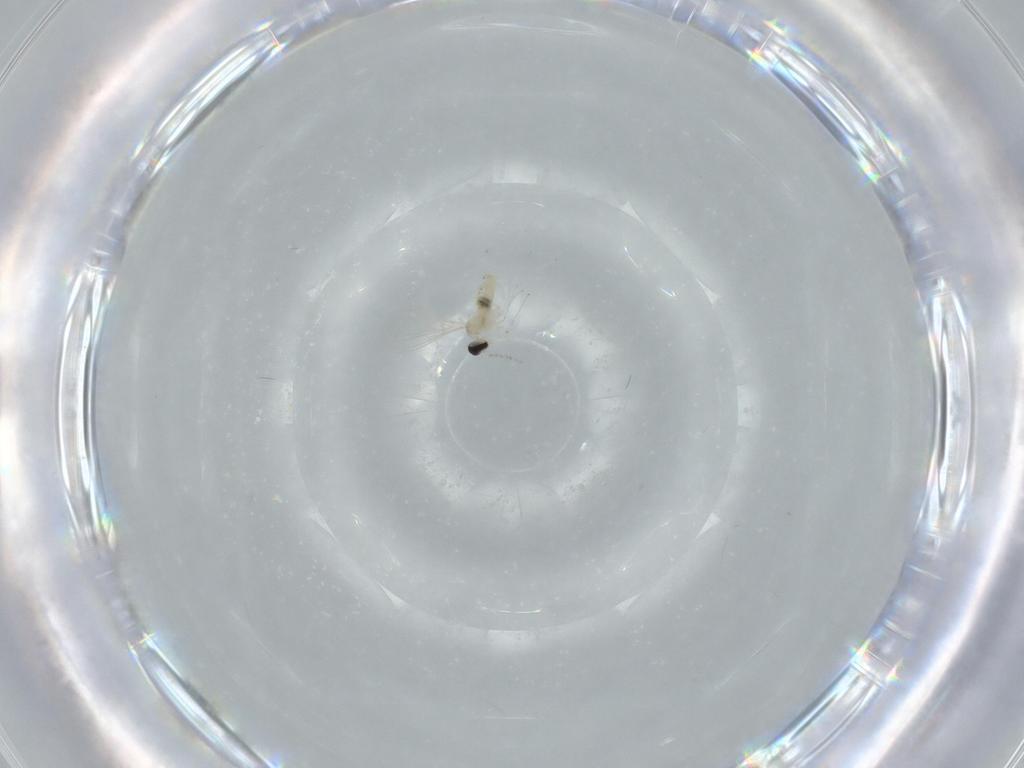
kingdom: Animalia
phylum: Arthropoda
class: Insecta
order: Diptera
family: Cecidomyiidae
